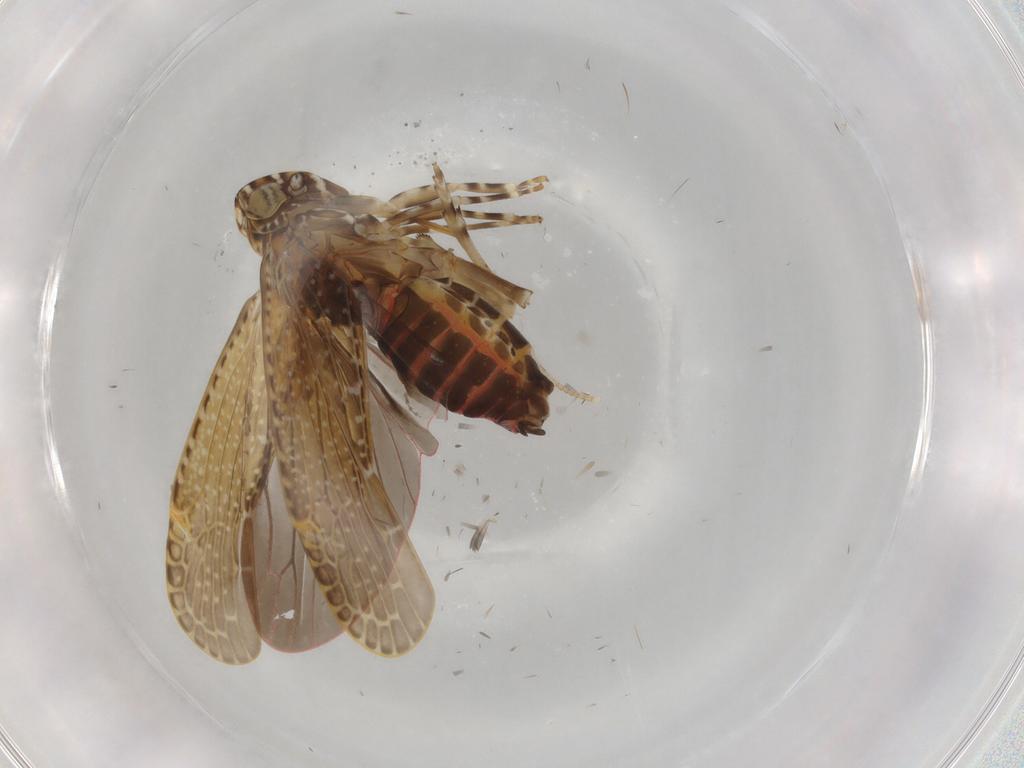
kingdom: Animalia
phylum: Arthropoda
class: Insecta
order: Hemiptera
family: Achilidae
